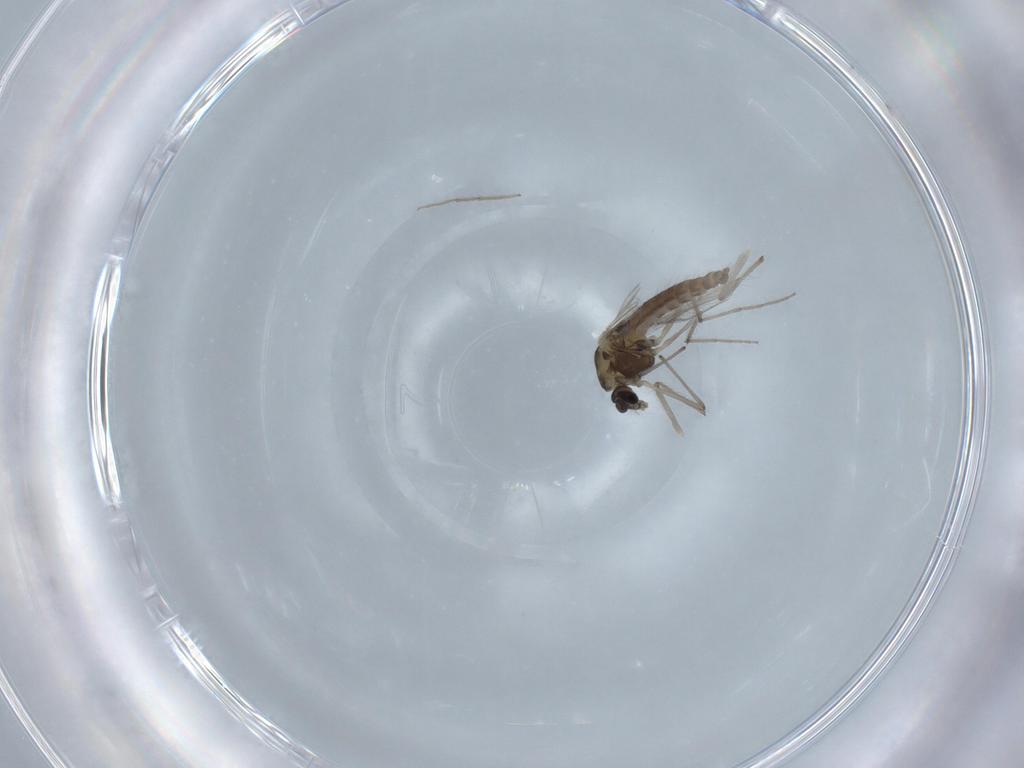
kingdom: Animalia
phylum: Arthropoda
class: Insecta
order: Diptera
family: Chironomidae
